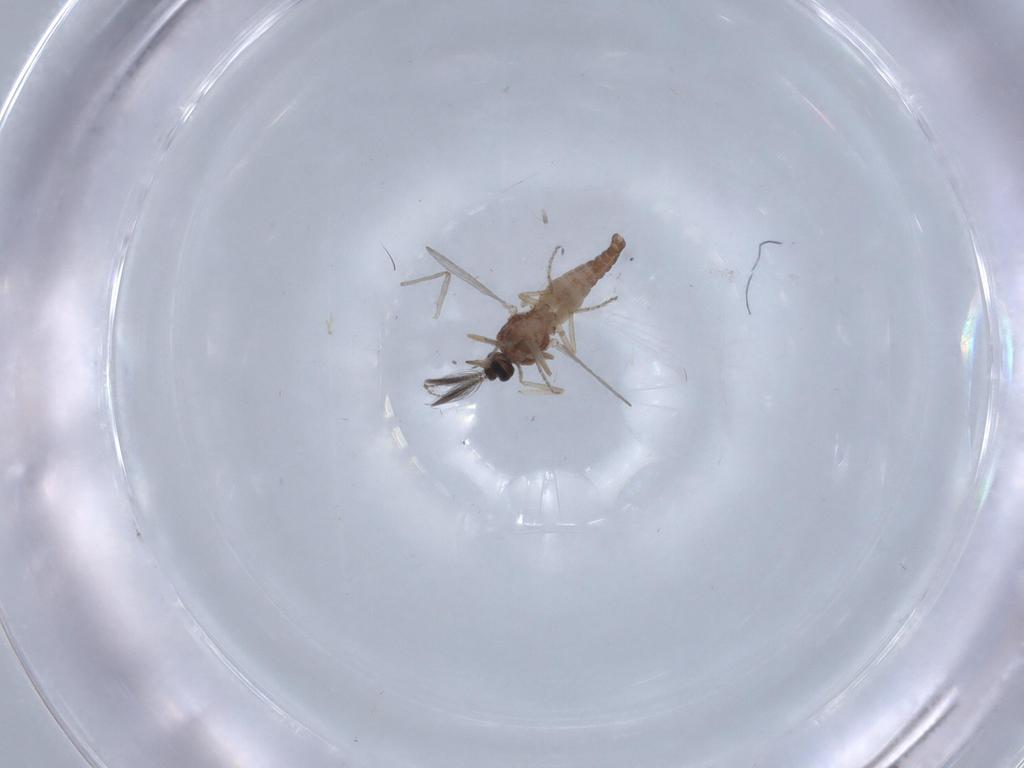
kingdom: Animalia
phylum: Arthropoda
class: Insecta
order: Diptera
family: Chironomidae
